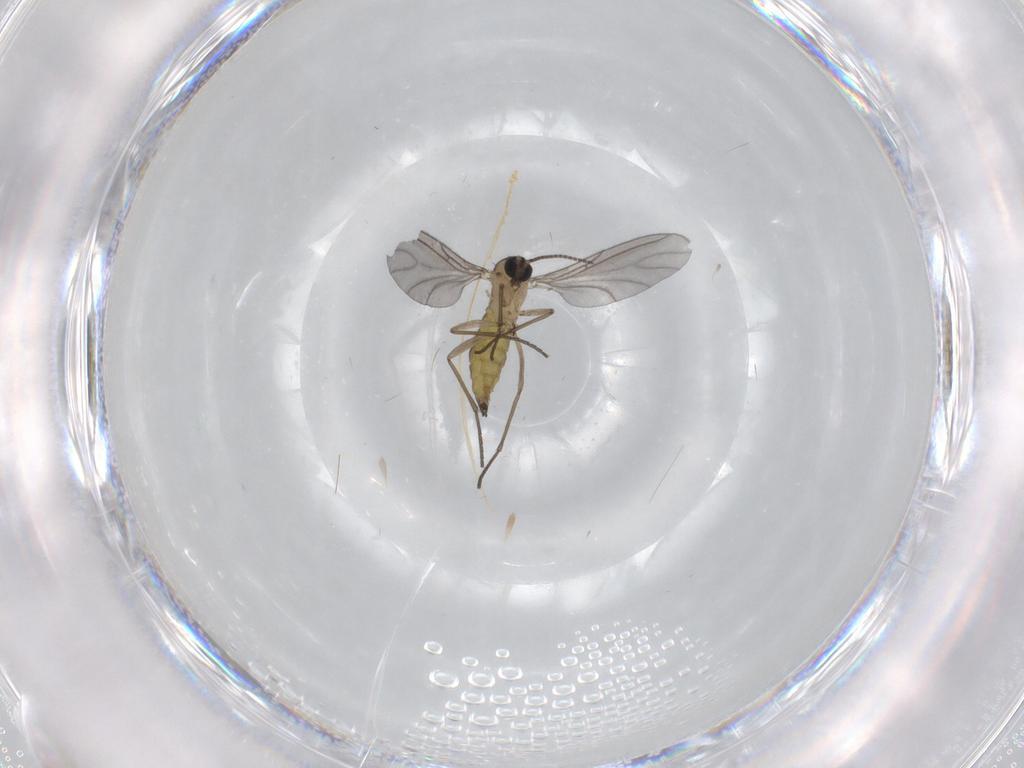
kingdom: Animalia
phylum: Arthropoda
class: Insecta
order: Diptera
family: Sciaridae
